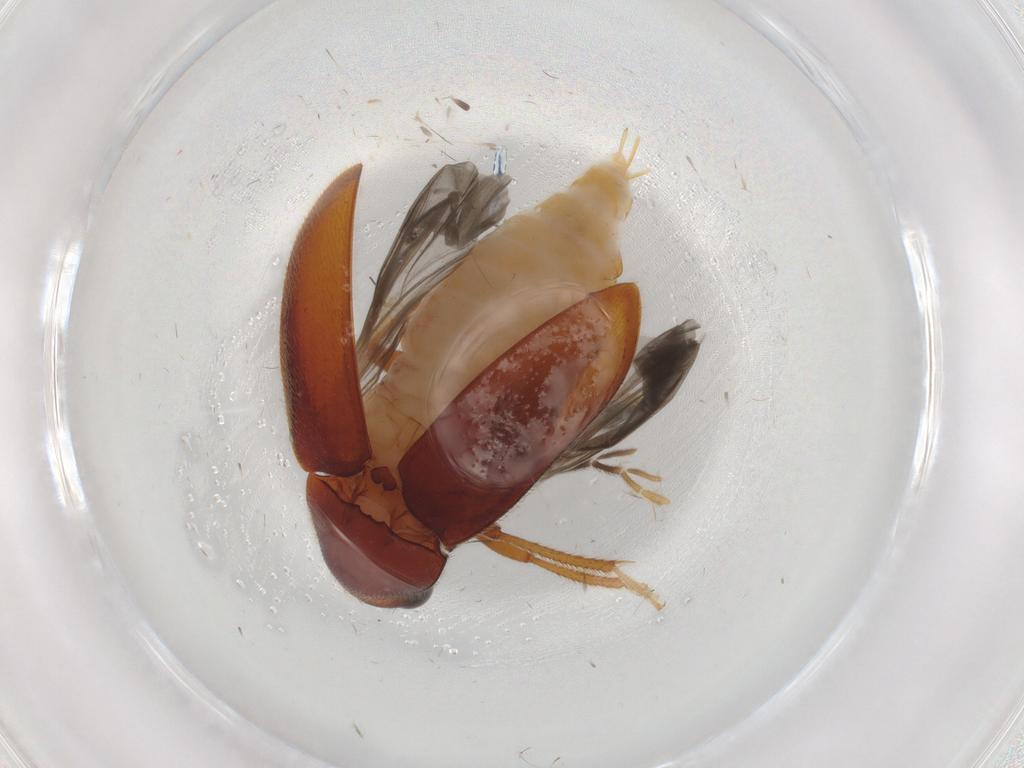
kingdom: Animalia
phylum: Arthropoda
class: Insecta
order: Coleoptera
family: Ptilodactylidae
